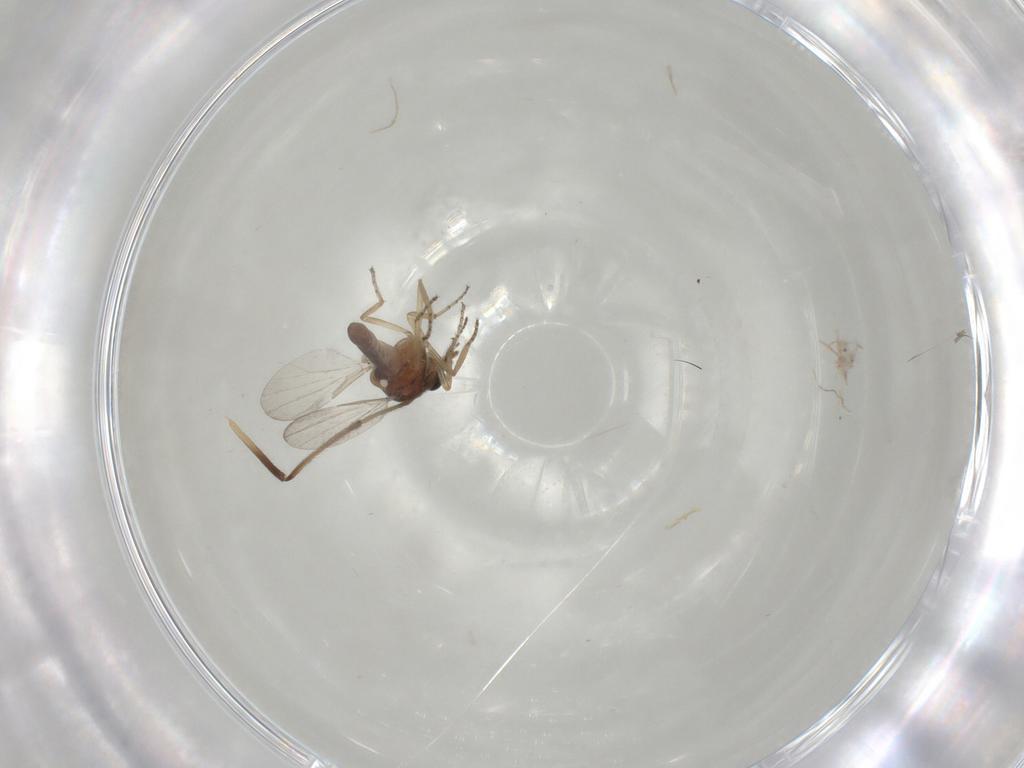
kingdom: Animalia
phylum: Arthropoda
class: Insecta
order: Diptera
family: Ceratopogonidae
